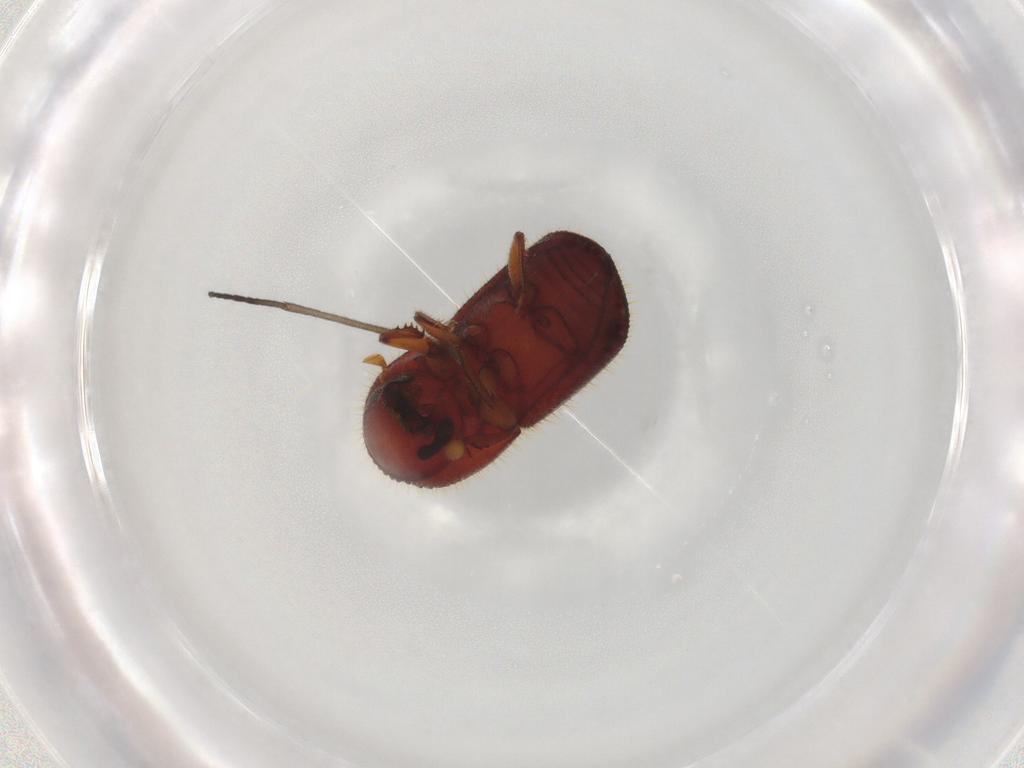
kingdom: Animalia
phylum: Arthropoda
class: Insecta
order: Coleoptera
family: Curculionidae
